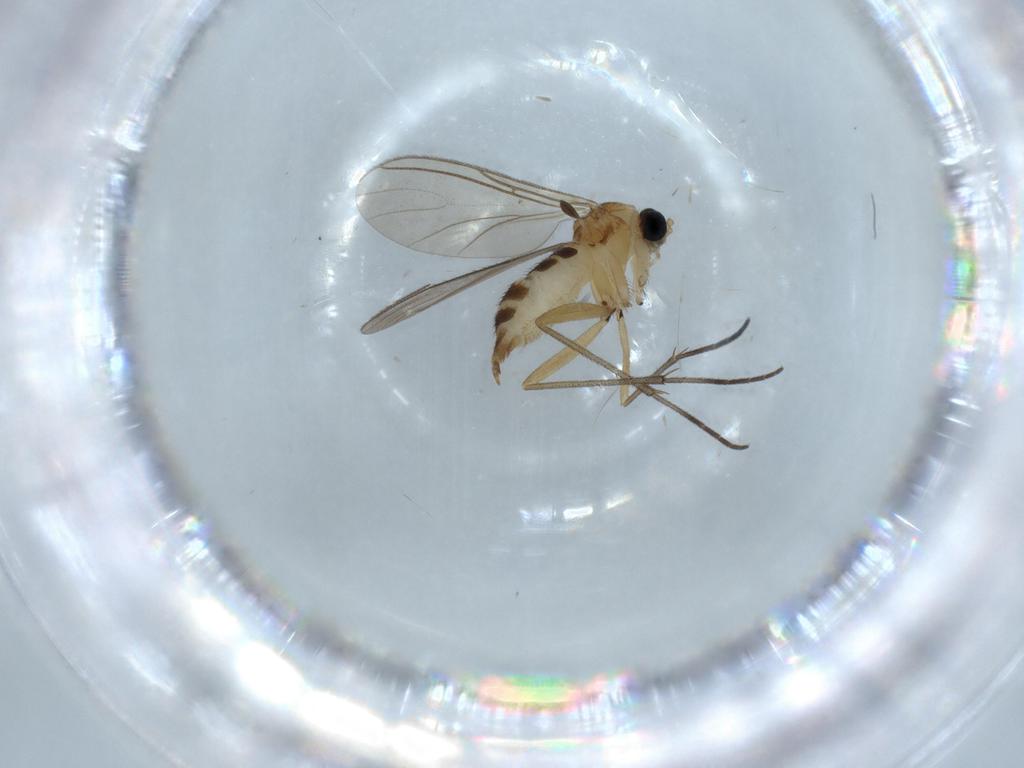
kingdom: Animalia
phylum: Arthropoda
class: Insecta
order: Diptera
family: Sciaridae
